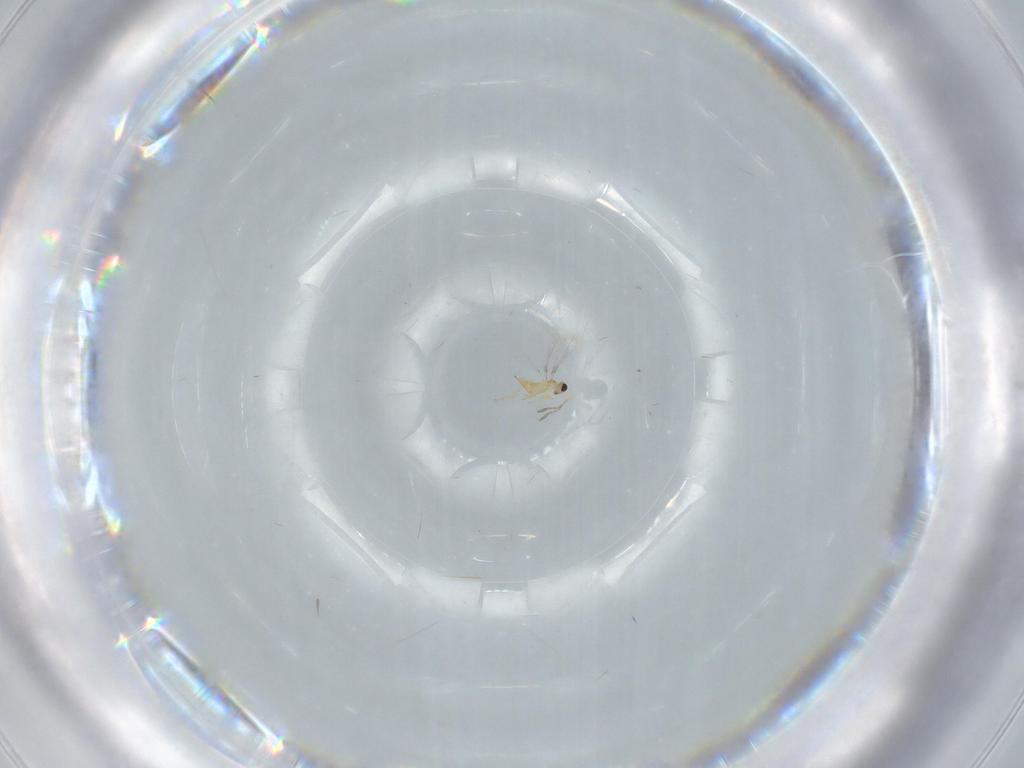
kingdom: Animalia
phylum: Arthropoda
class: Insecta
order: Hymenoptera
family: Mymaridae
